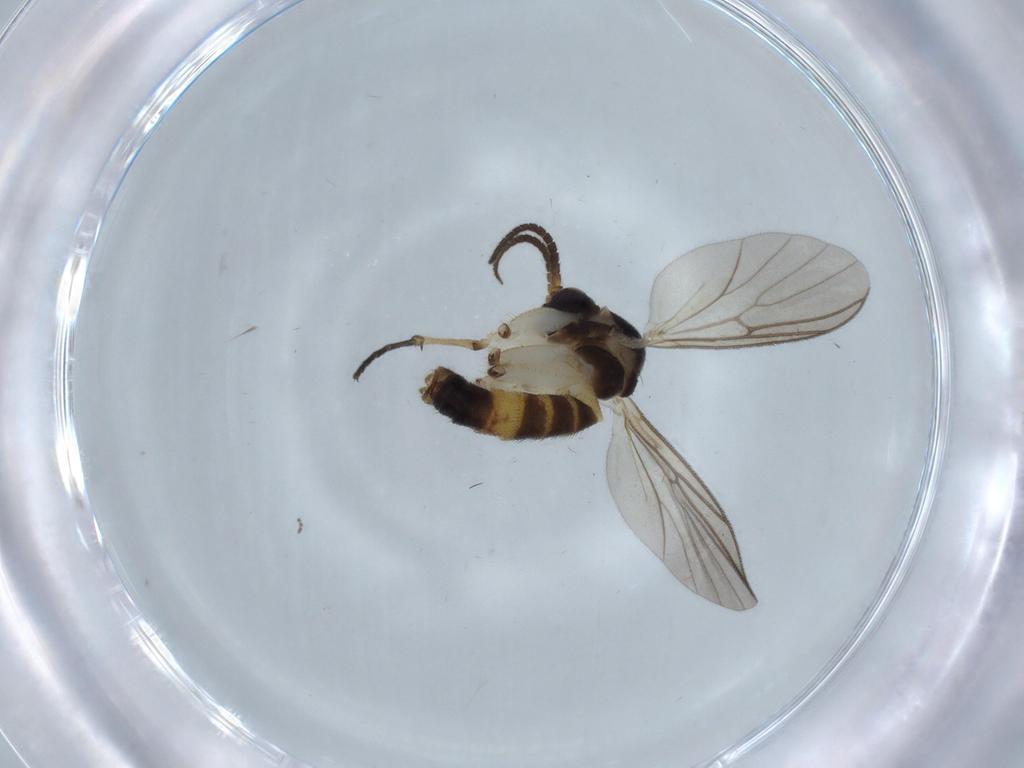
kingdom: Animalia
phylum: Arthropoda
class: Insecta
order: Diptera
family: Mycetophilidae
